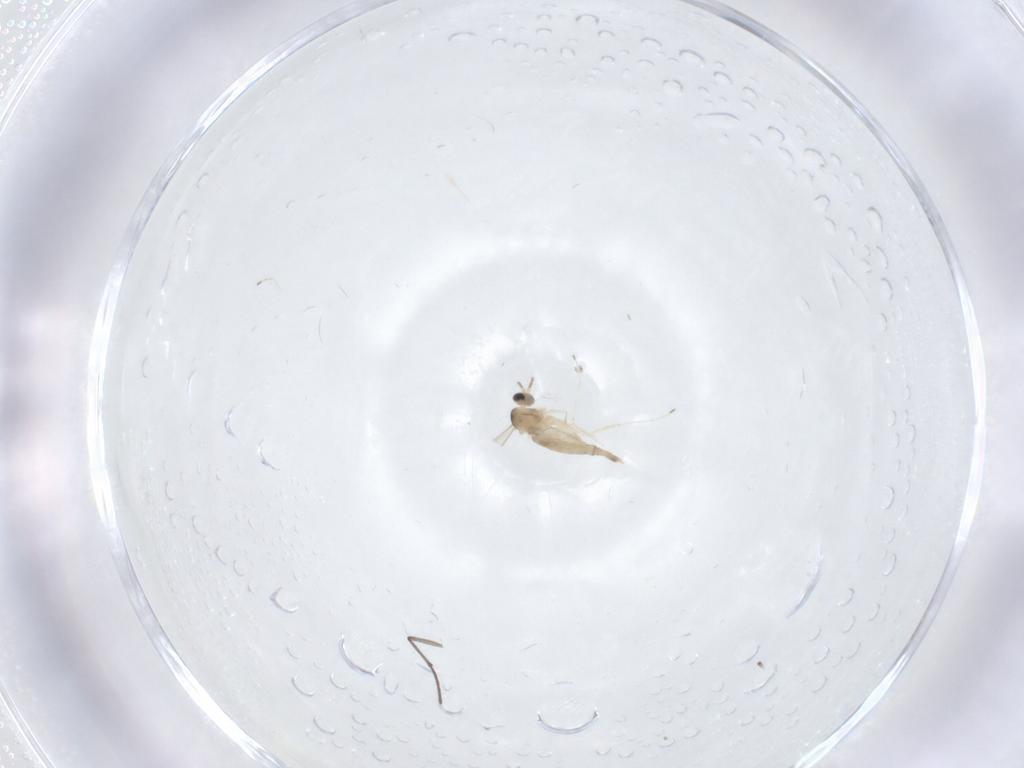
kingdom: Animalia
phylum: Arthropoda
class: Insecta
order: Diptera
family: Sciaridae
